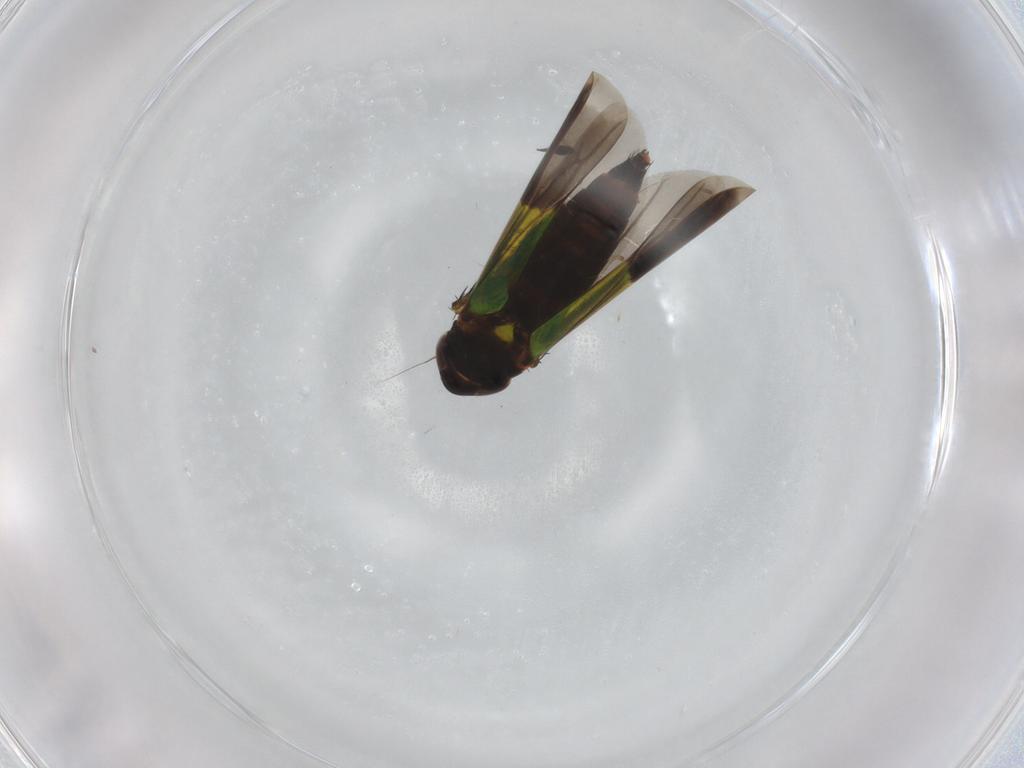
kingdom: Animalia
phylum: Arthropoda
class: Insecta
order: Hemiptera
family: Cicadellidae
